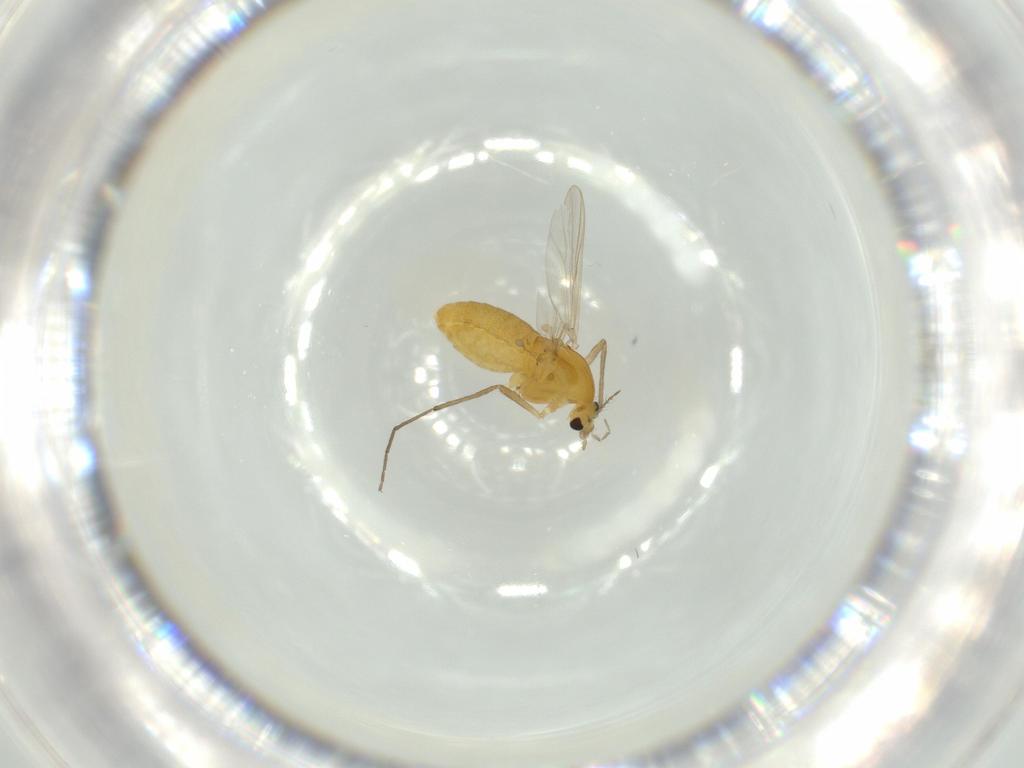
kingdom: Animalia
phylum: Arthropoda
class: Insecta
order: Diptera
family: Chironomidae
